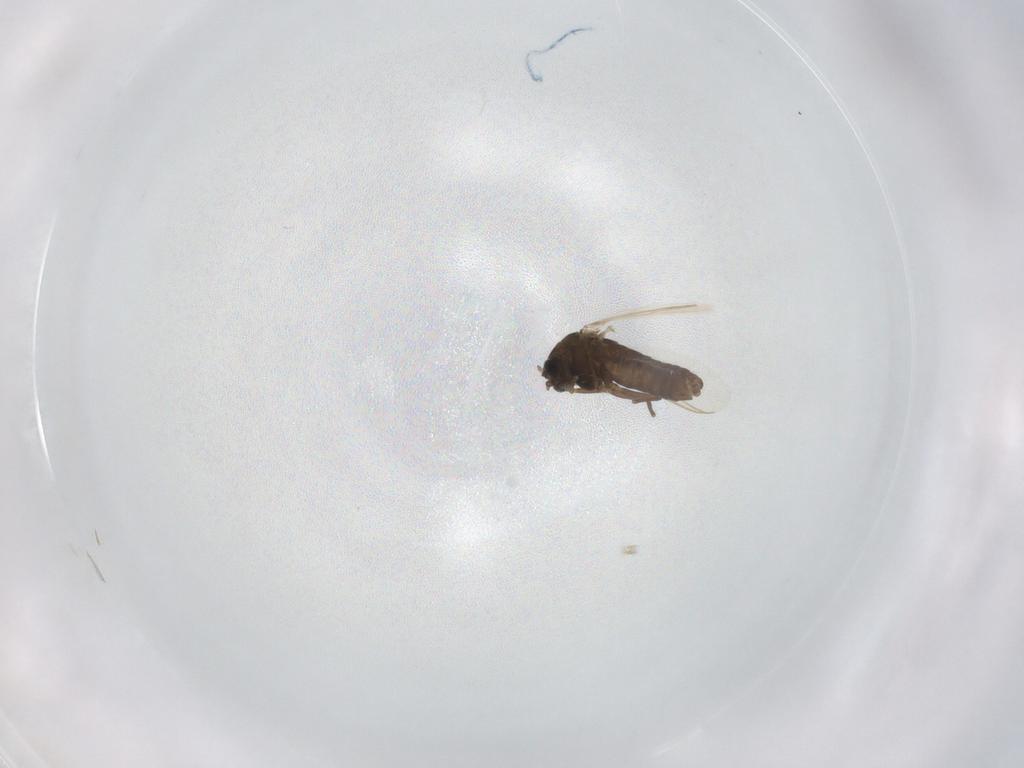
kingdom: Animalia
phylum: Arthropoda
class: Insecta
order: Diptera
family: Chironomidae
